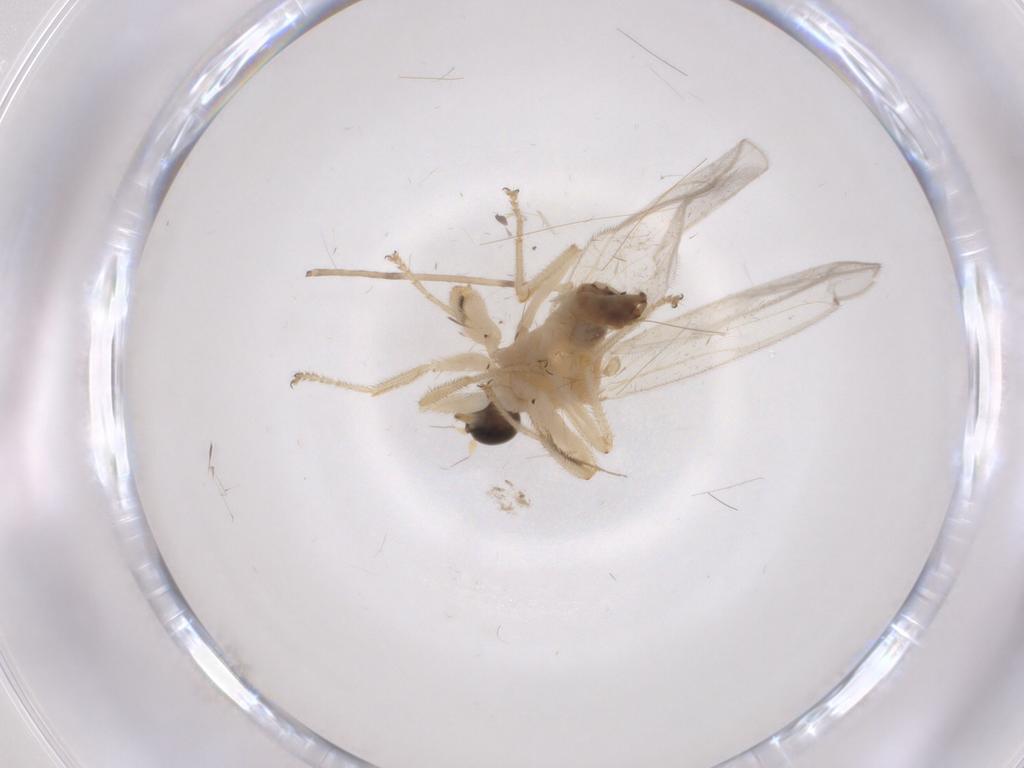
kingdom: Animalia
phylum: Arthropoda
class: Insecta
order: Diptera
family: Hybotidae
